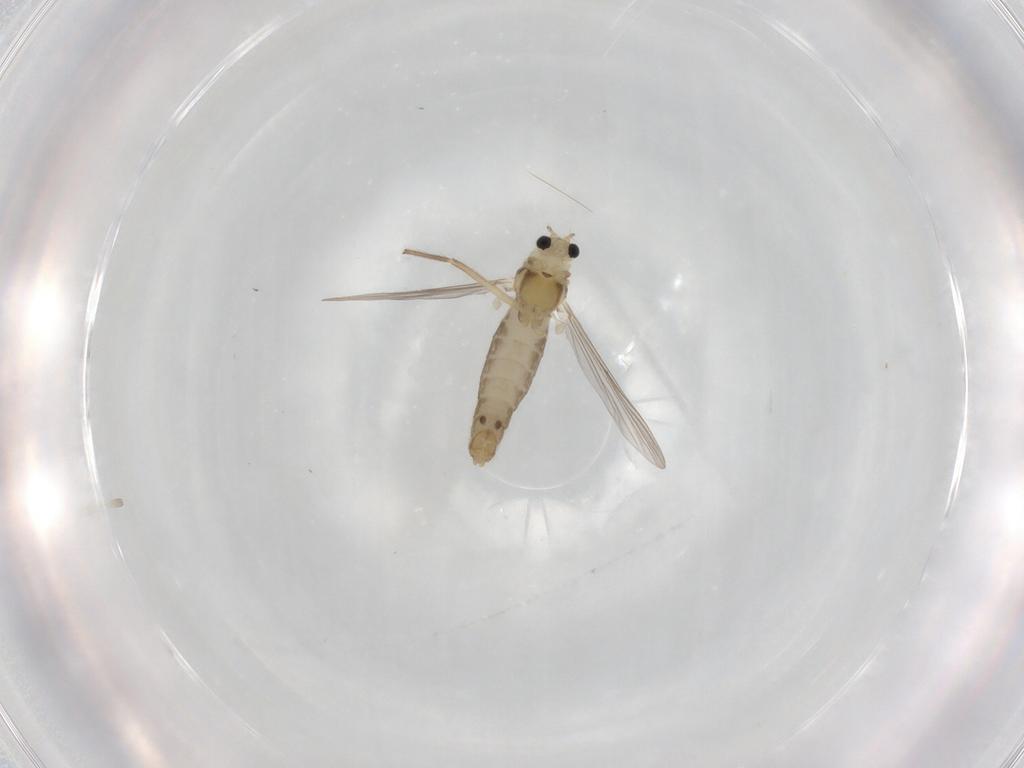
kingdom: Animalia
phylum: Arthropoda
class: Insecta
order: Diptera
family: Chironomidae
